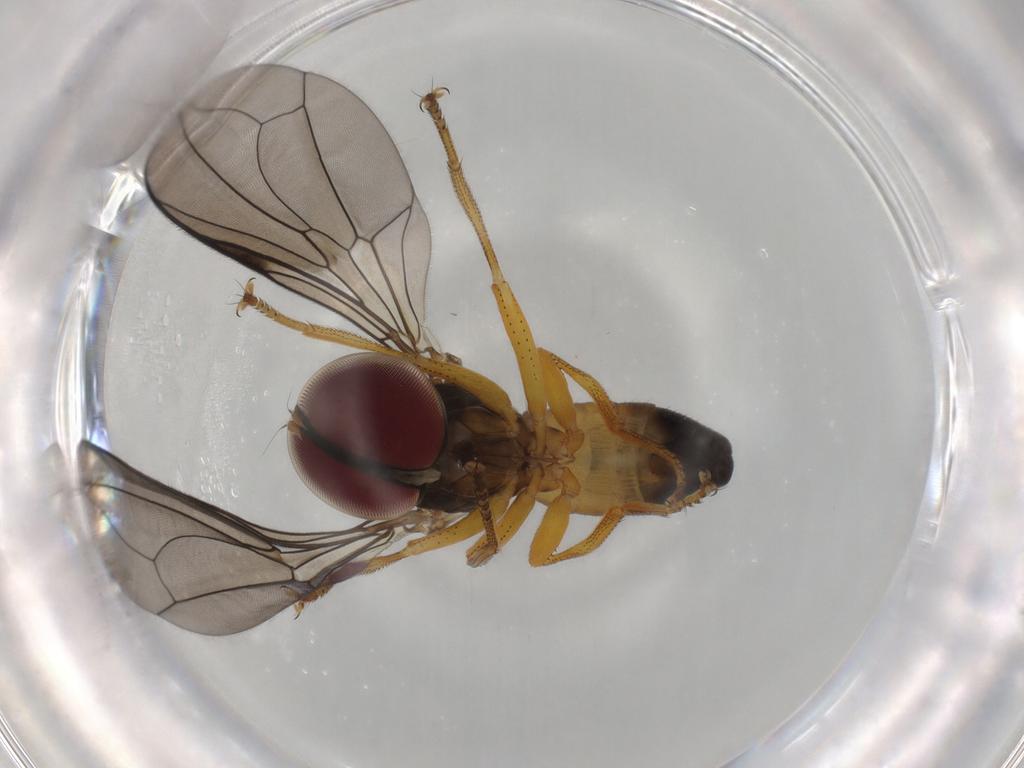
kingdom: Animalia
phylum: Arthropoda
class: Insecta
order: Diptera
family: Pipunculidae
